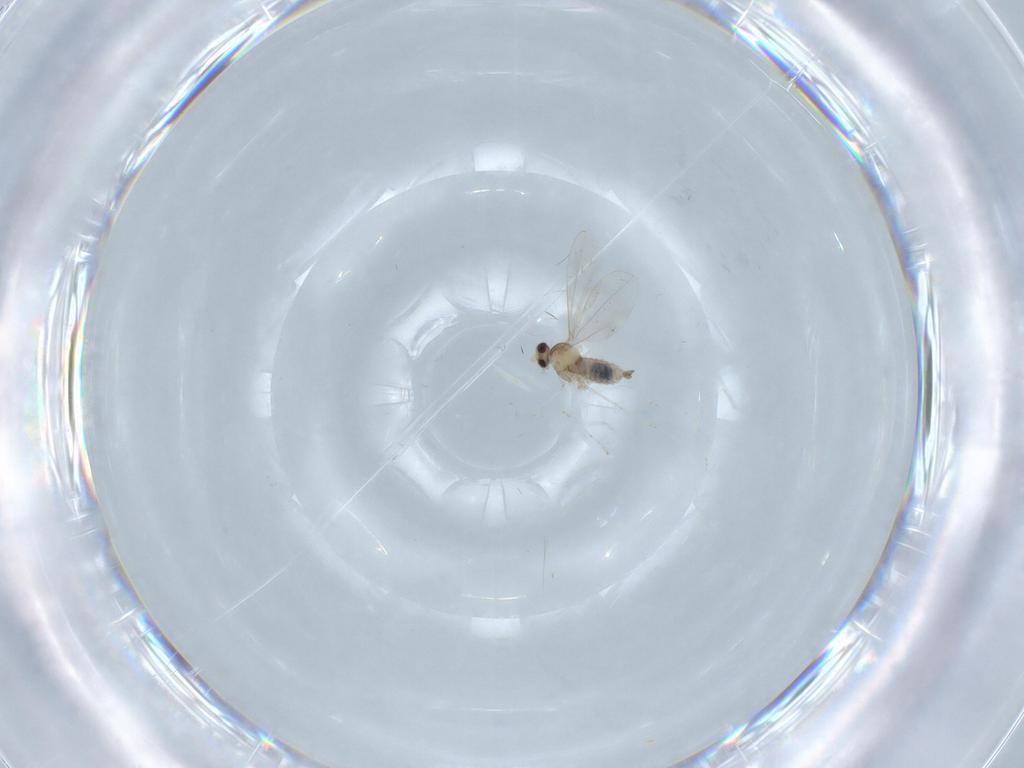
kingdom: Animalia
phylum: Arthropoda
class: Insecta
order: Diptera
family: Cecidomyiidae
